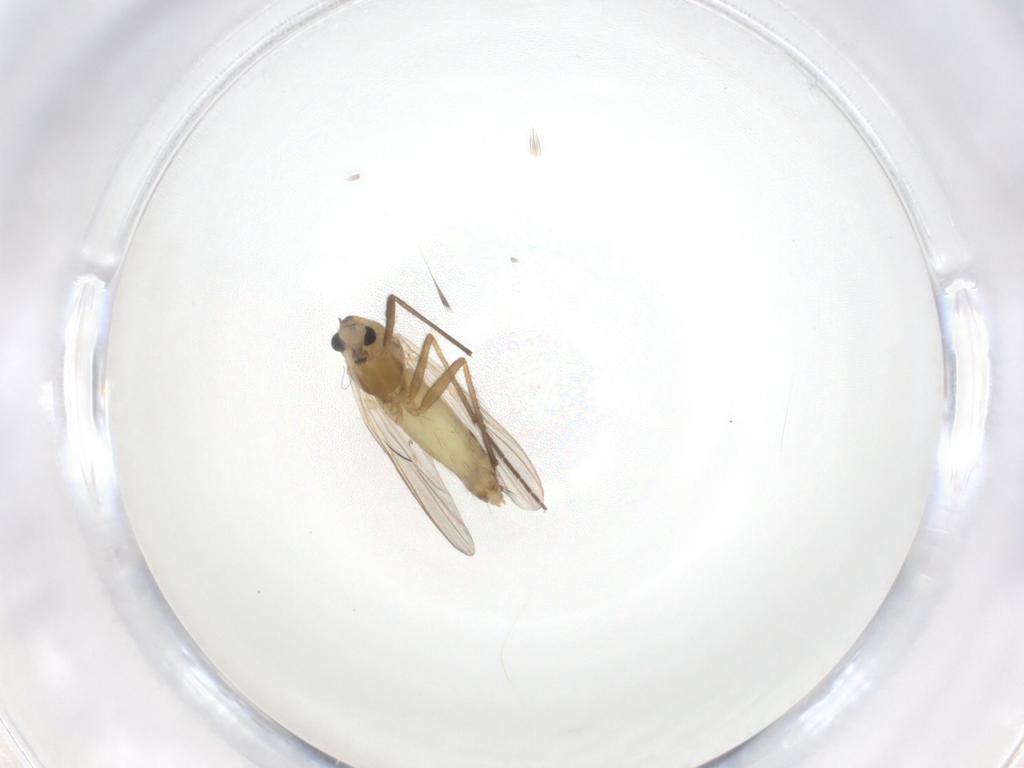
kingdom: Animalia
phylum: Arthropoda
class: Insecta
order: Diptera
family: Chironomidae
